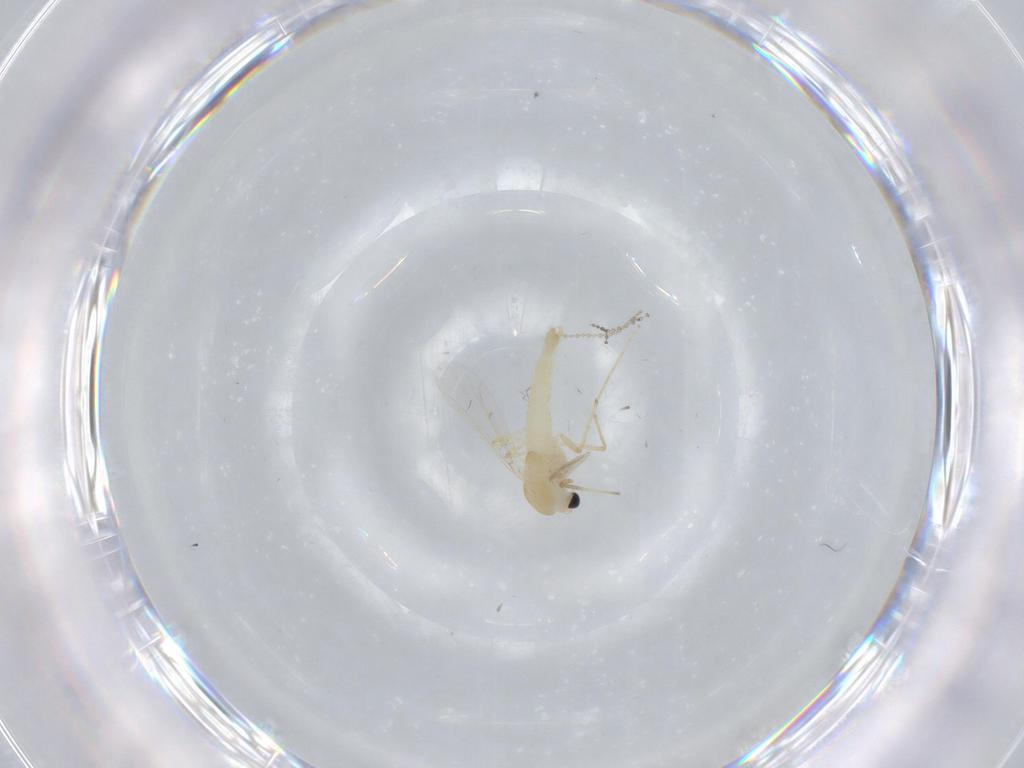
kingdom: Animalia
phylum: Arthropoda
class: Insecta
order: Diptera
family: Chironomidae
